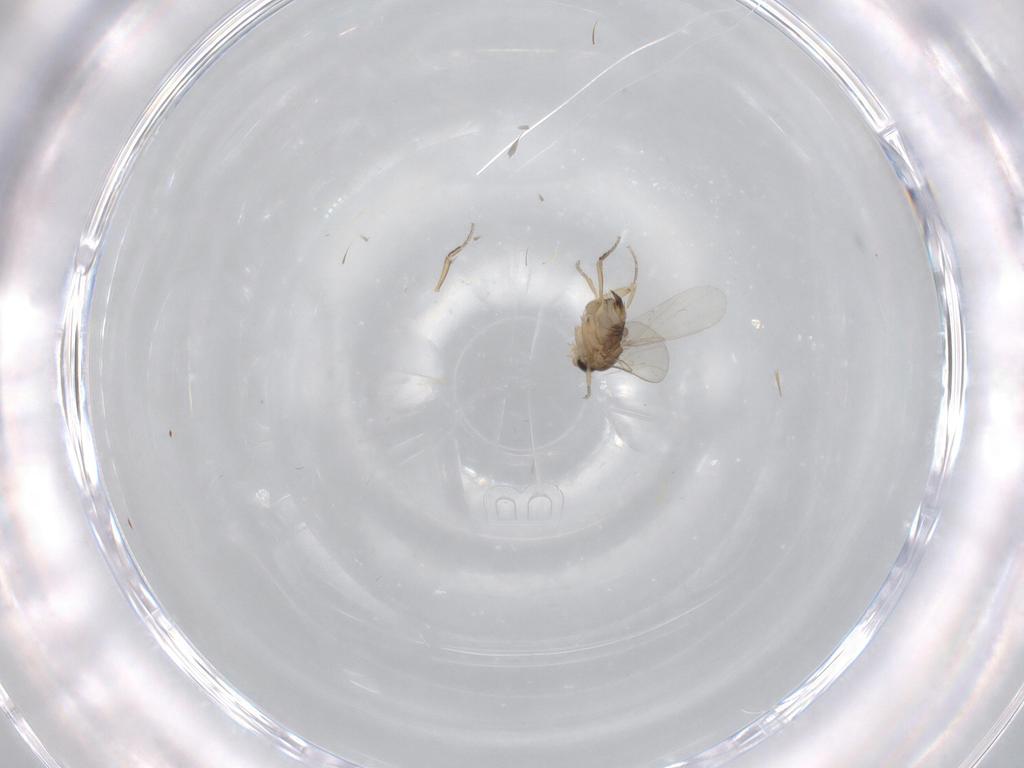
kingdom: Animalia
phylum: Arthropoda
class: Insecta
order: Diptera
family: Phoridae
